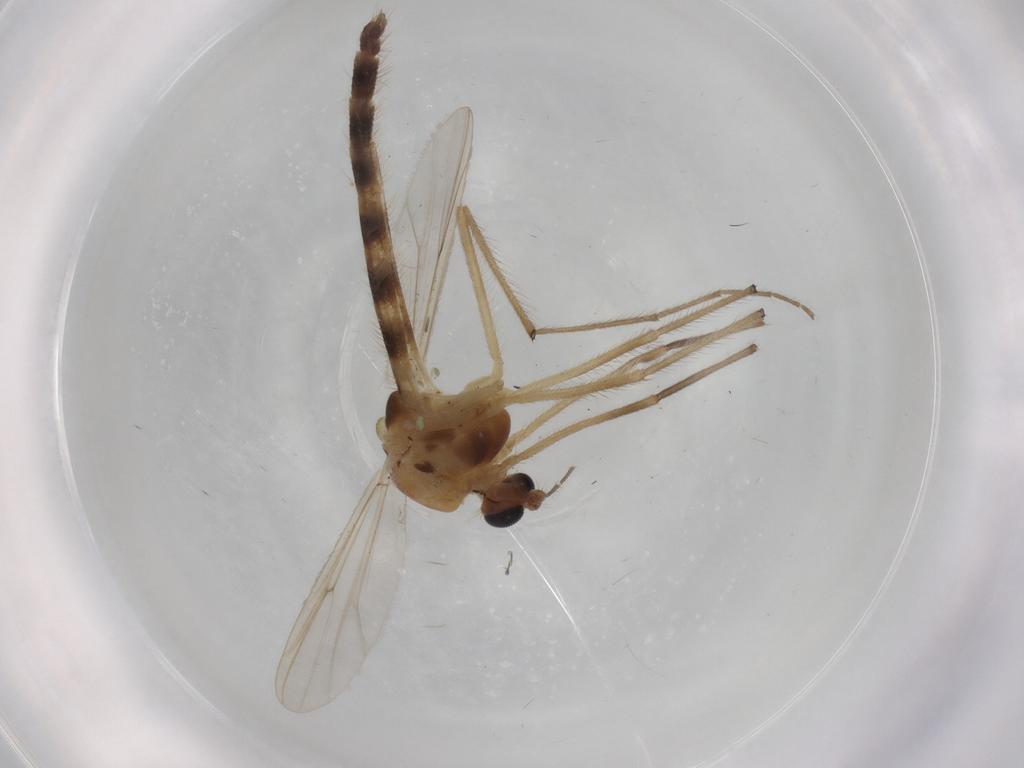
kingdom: Animalia
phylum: Arthropoda
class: Insecta
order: Diptera
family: Chironomidae
